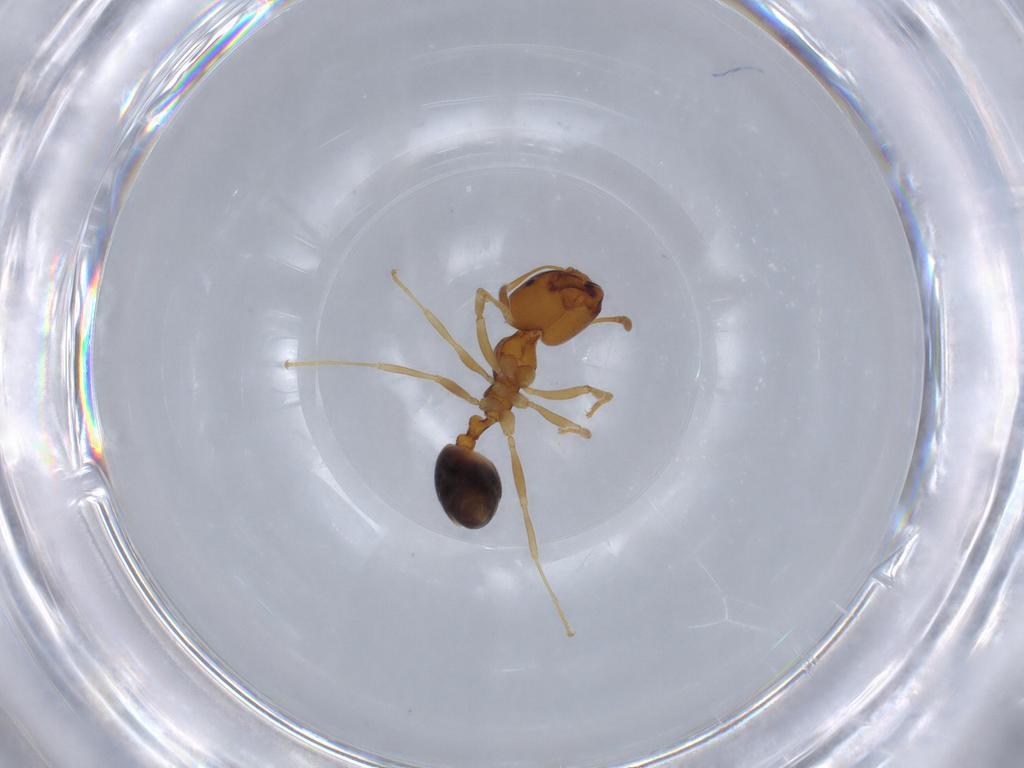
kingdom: Animalia
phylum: Arthropoda
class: Insecta
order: Hymenoptera
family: Formicidae
